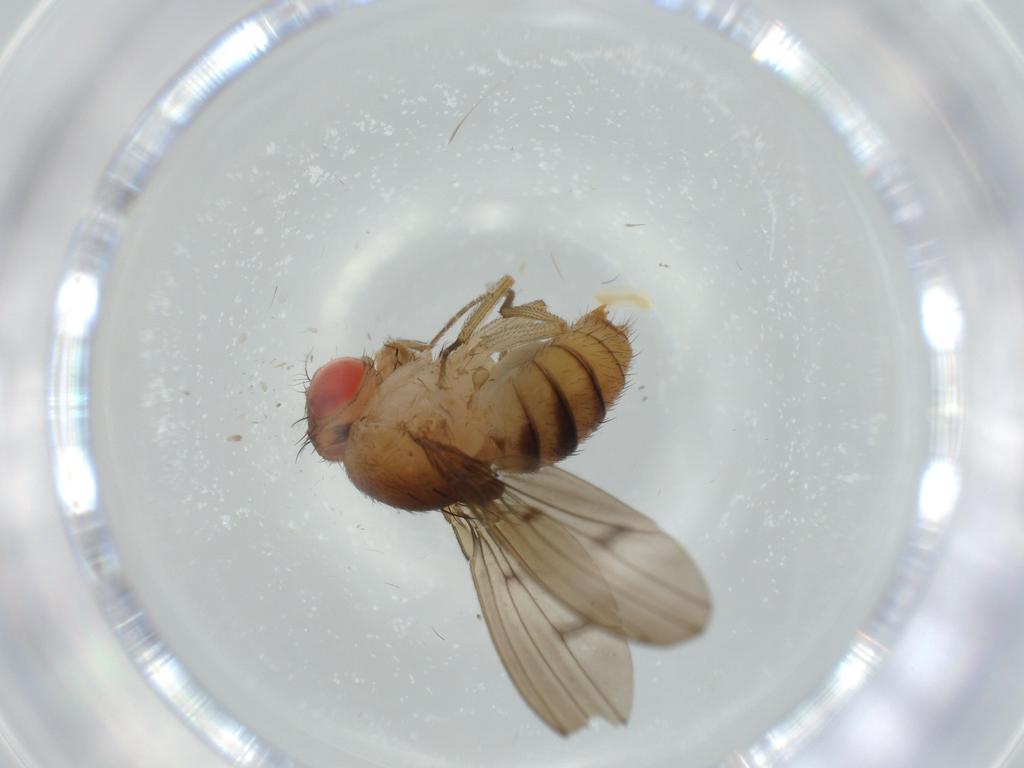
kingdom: Animalia
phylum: Arthropoda
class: Insecta
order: Diptera
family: Drosophilidae
